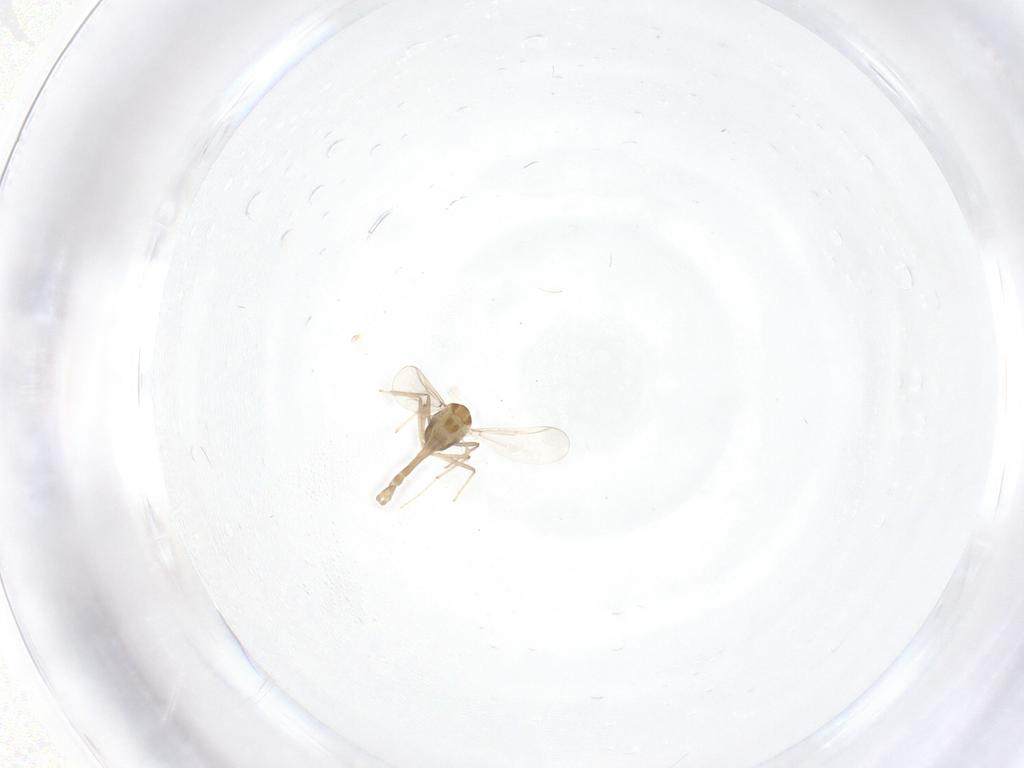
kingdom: Animalia
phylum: Arthropoda
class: Insecta
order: Diptera
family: Chironomidae
